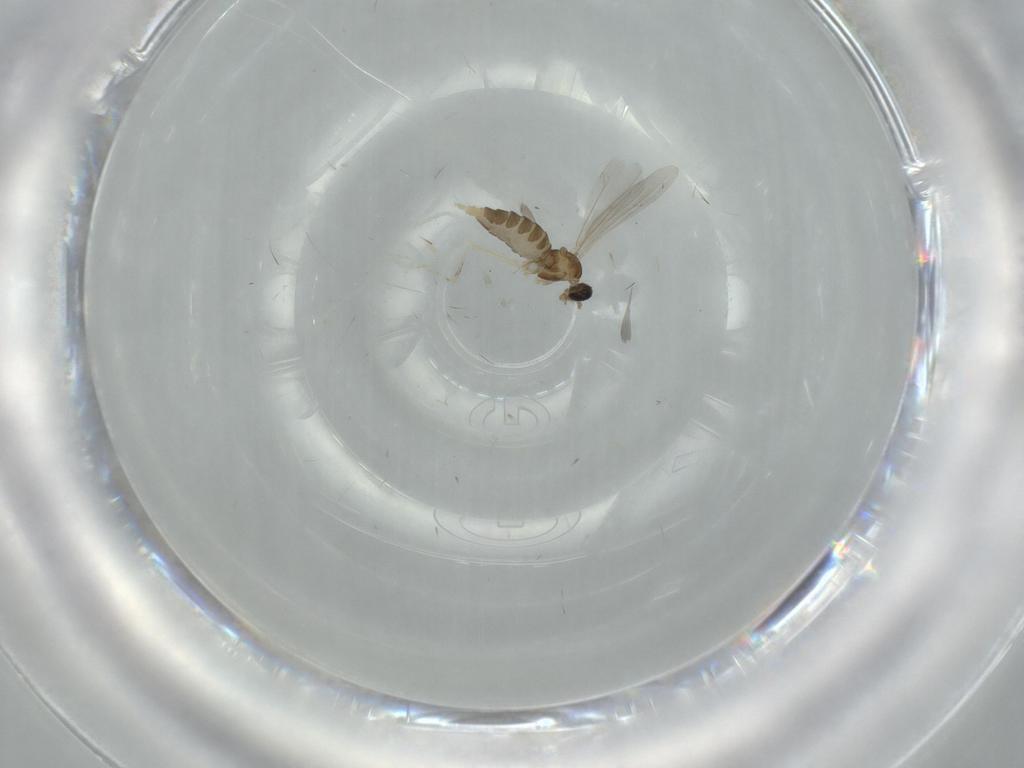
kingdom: Animalia
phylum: Arthropoda
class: Insecta
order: Diptera
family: Cecidomyiidae
